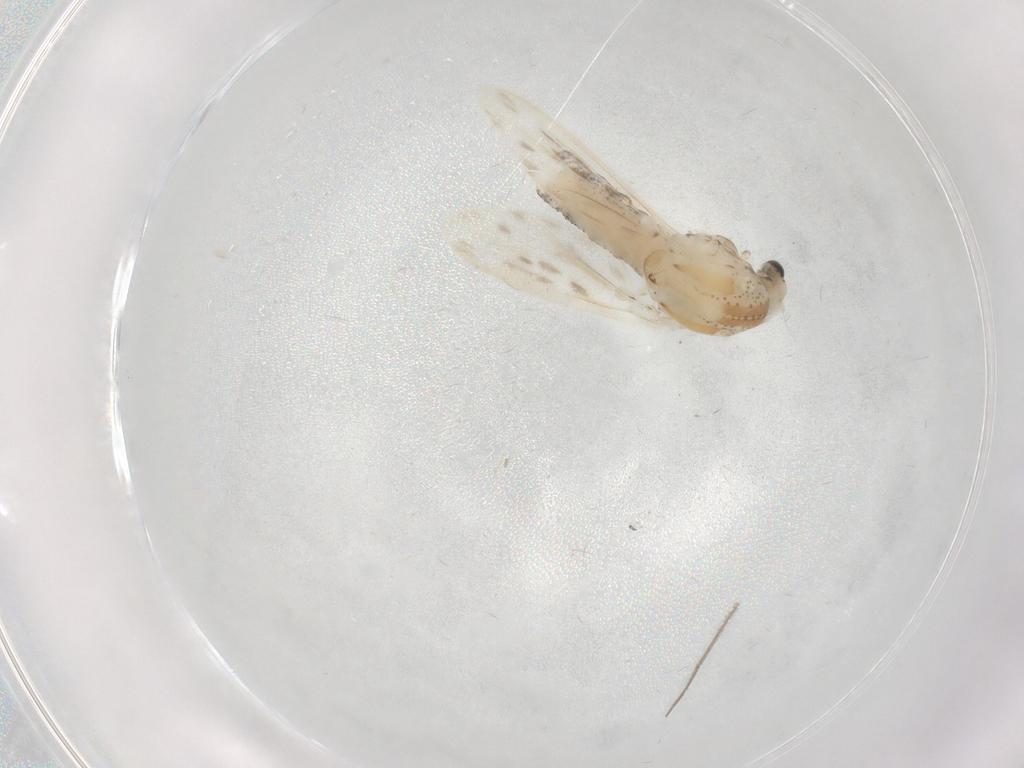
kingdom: Animalia
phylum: Arthropoda
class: Insecta
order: Diptera
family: Chaoboridae
